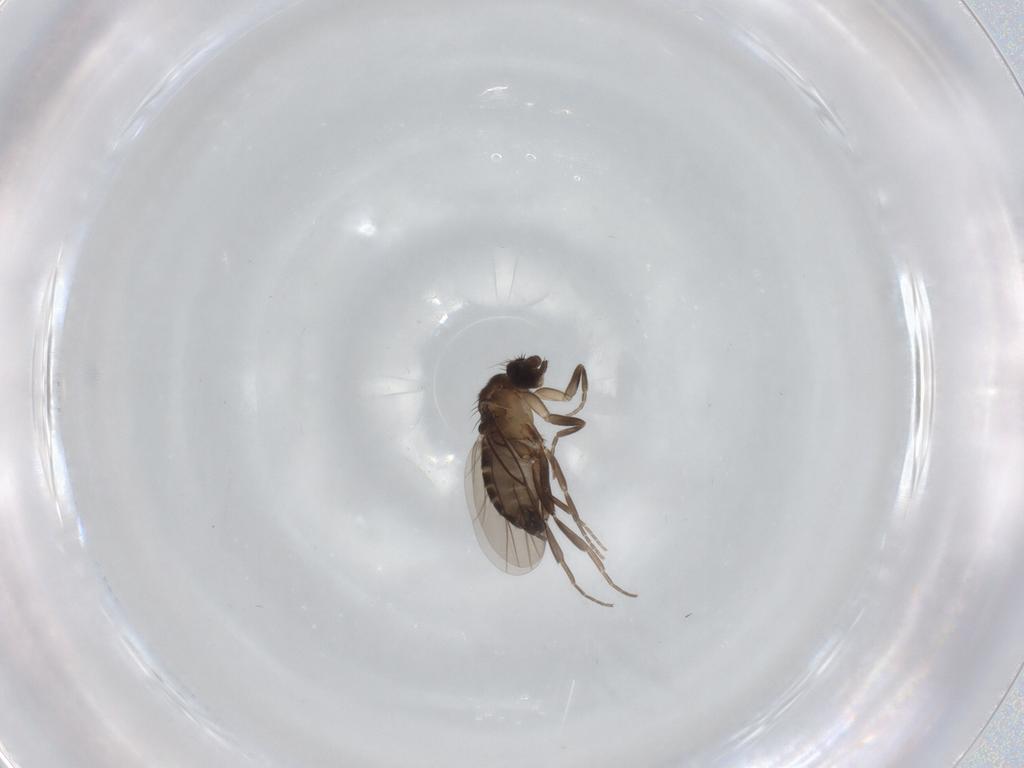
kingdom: Animalia
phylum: Arthropoda
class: Insecta
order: Diptera
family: Phoridae
